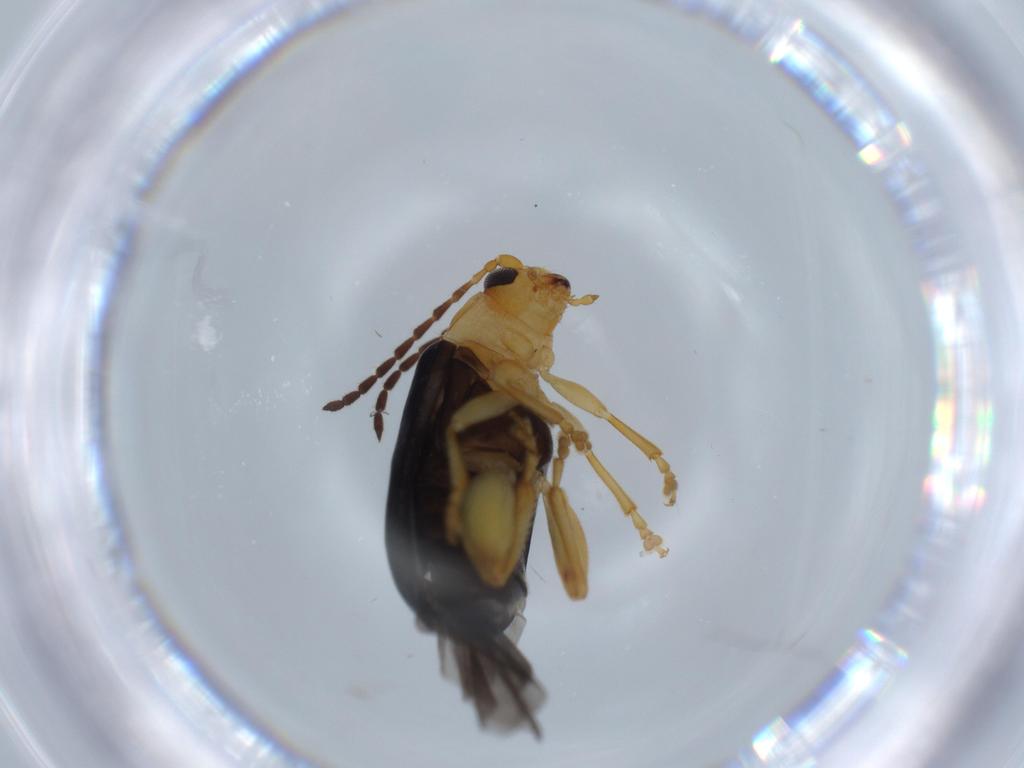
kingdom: Animalia
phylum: Arthropoda
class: Insecta
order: Coleoptera
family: Chrysomelidae
